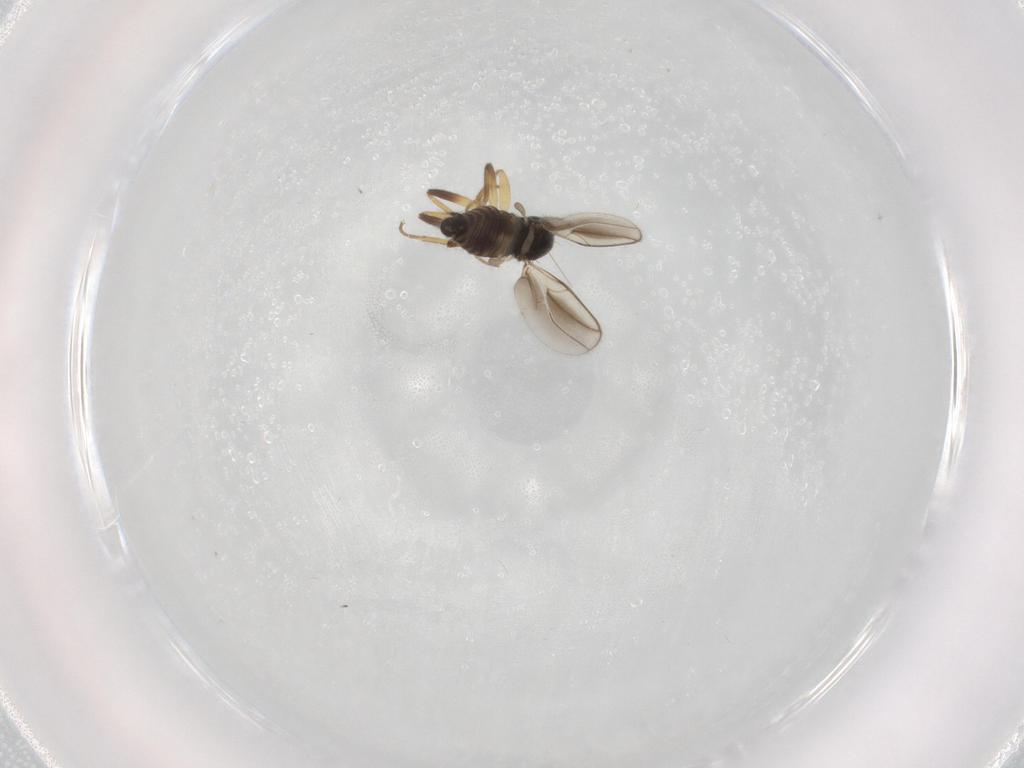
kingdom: Animalia
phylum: Arthropoda
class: Insecta
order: Diptera
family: Hybotidae
